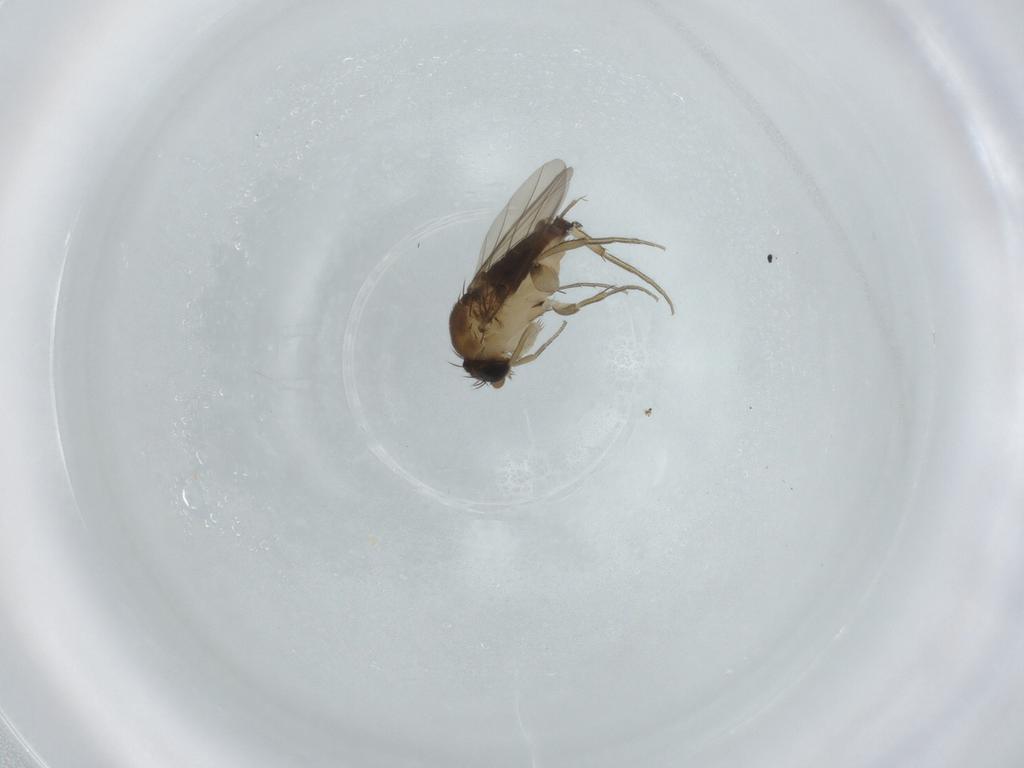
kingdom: Animalia
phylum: Arthropoda
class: Insecta
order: Diptera
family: Phoridae
